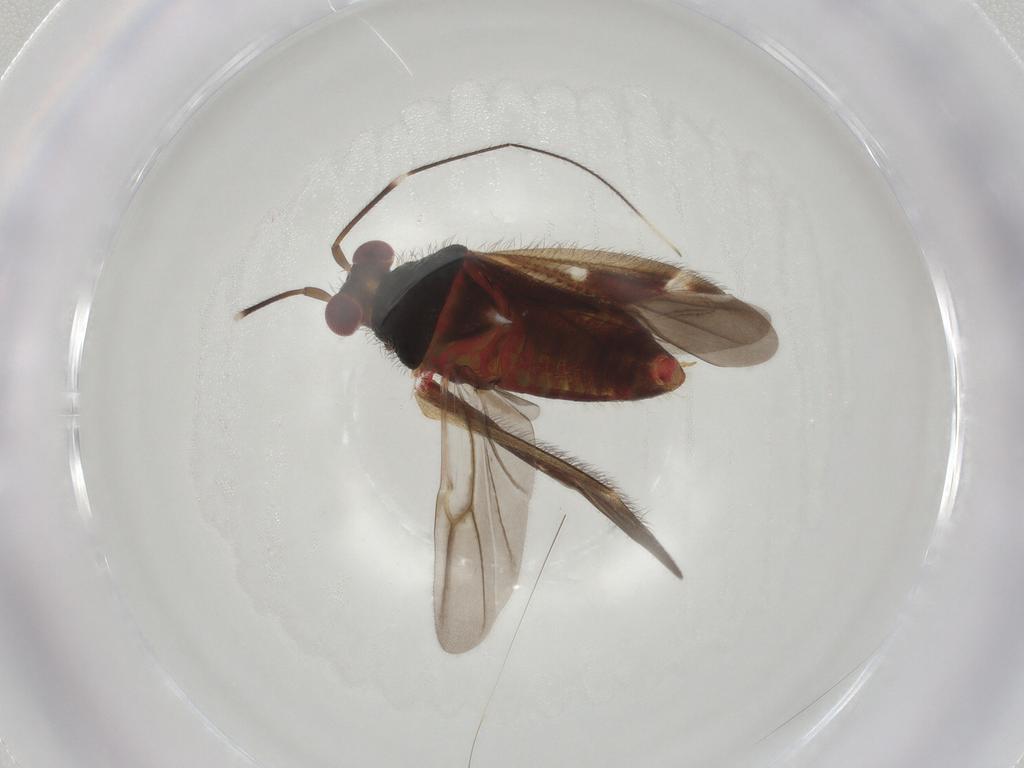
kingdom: Animalia
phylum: Arthropoda
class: Insecta
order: Hemiptera
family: Miridae
